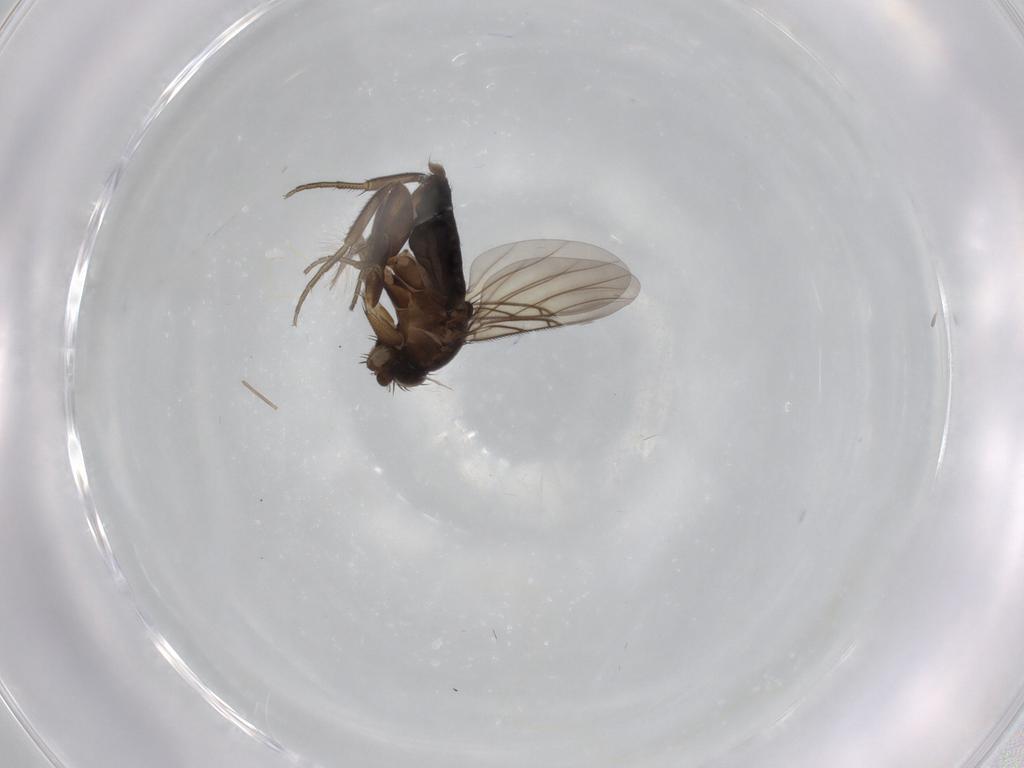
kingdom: Animalia
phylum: Arthropoda
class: Insecta
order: Diptera
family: Phoridae
